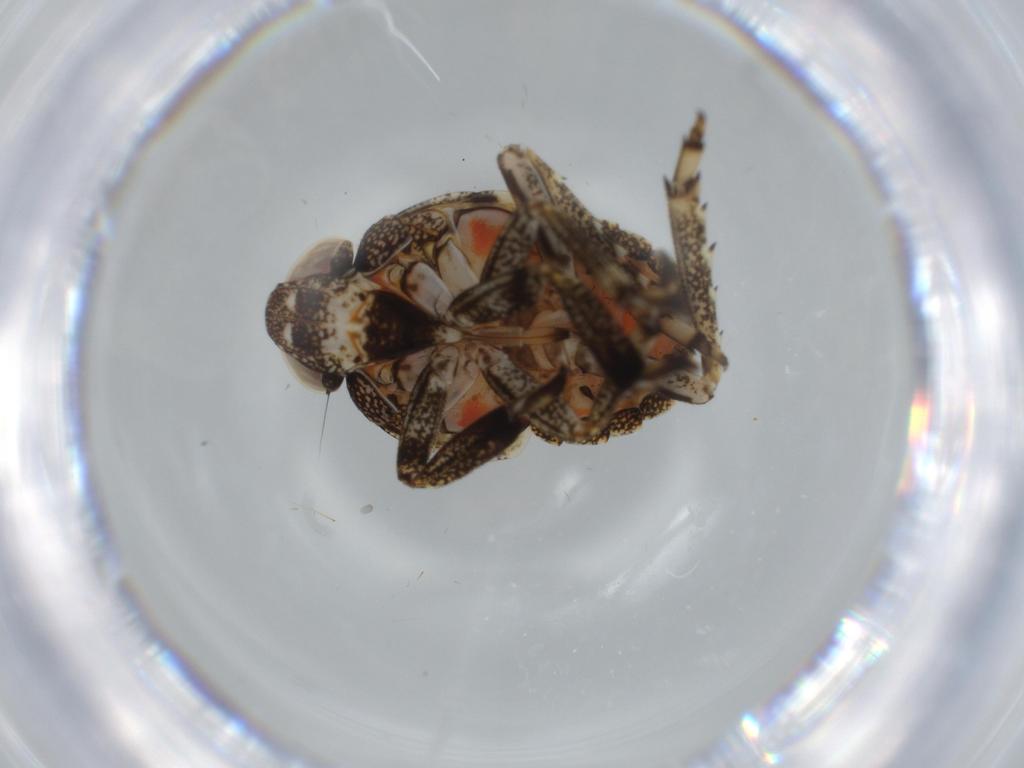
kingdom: Animalia
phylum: Arthropoda
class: Insecta
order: Hemiptera
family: Issidae
